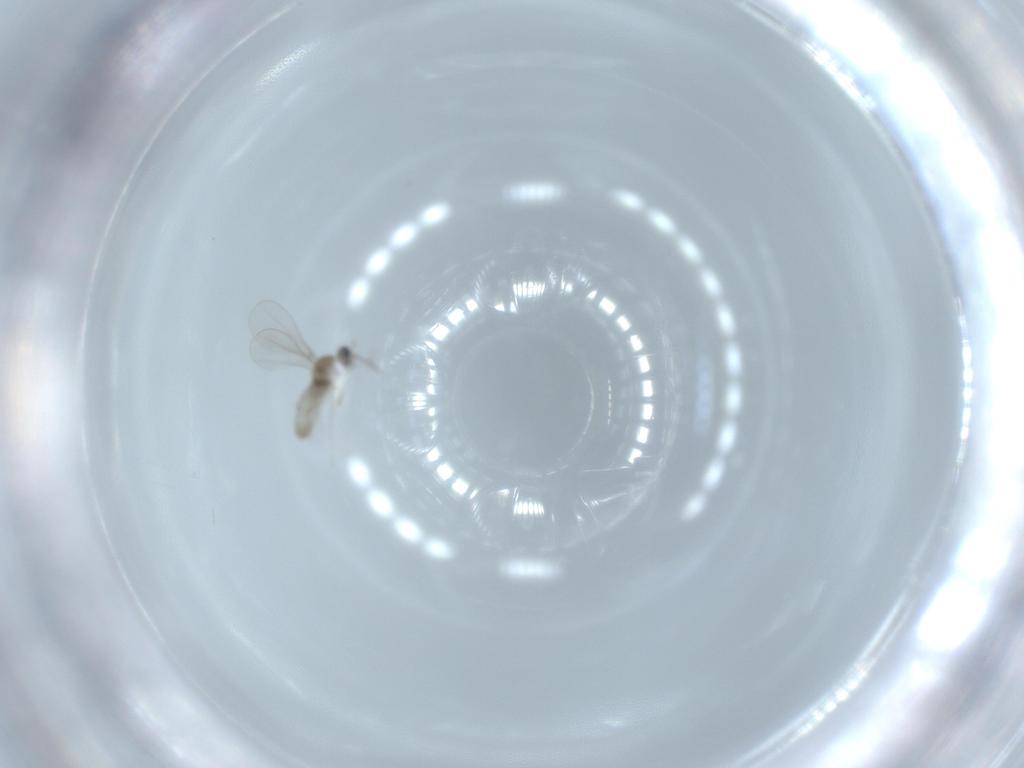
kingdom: Animalia
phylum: Arthropoda
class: Insecta
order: Diptera
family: Cecidomyiidae
